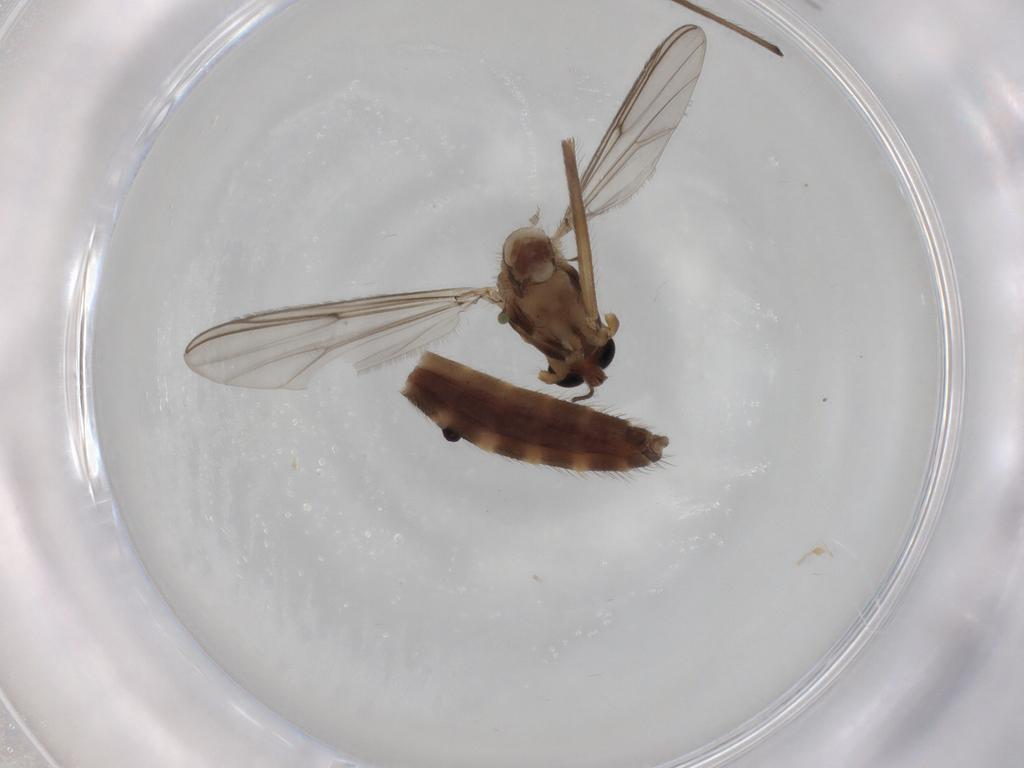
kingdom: Animalia
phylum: Arthropoda
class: Insecta
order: Diptera
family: Chironomidae
